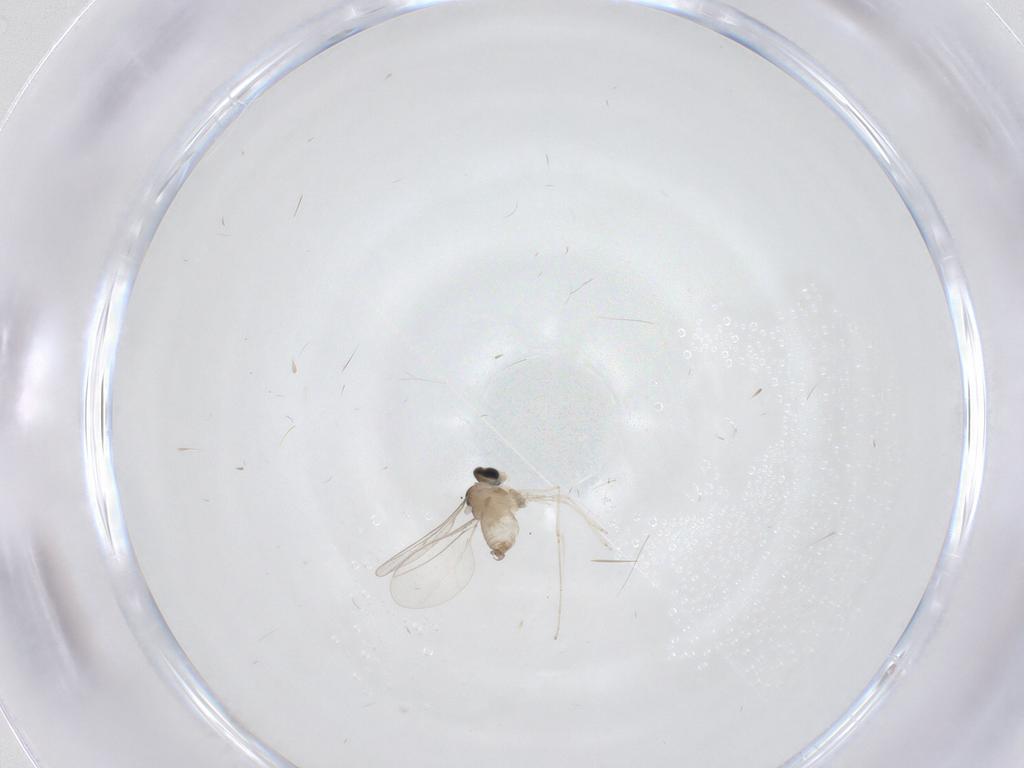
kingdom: Animalia
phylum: Arthropoda
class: Insecta
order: Diptera
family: Cecidomyiidae
